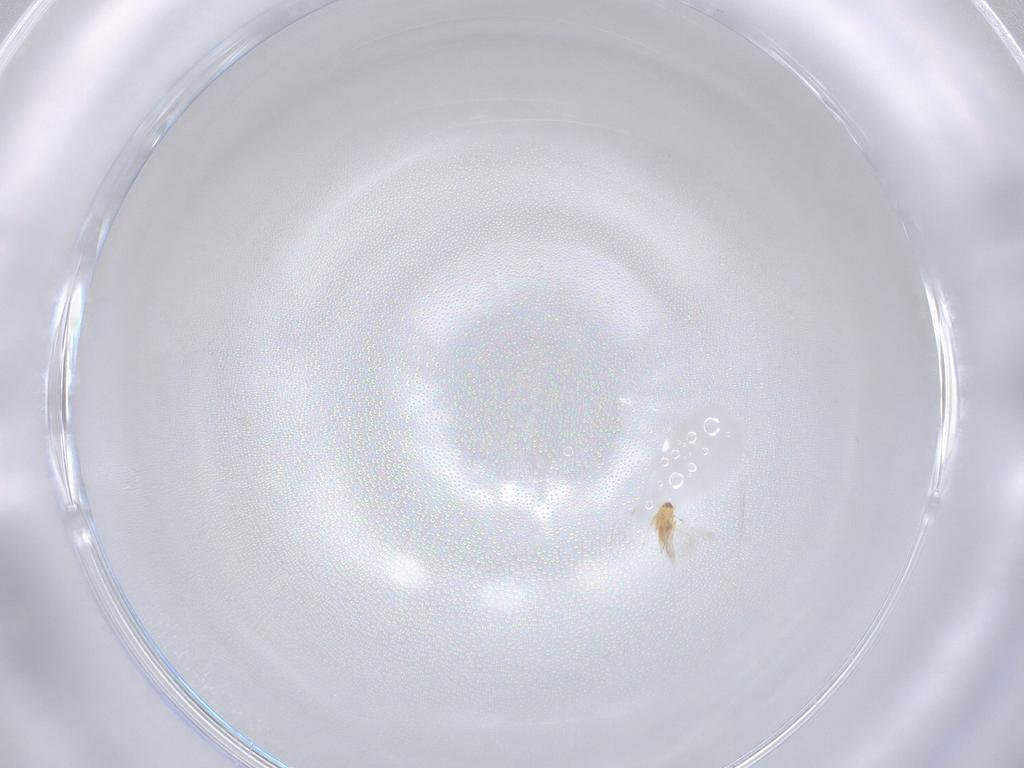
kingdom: Animalia
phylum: Arthropoda
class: Insecta
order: Hymenoptera
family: Mymaridae
